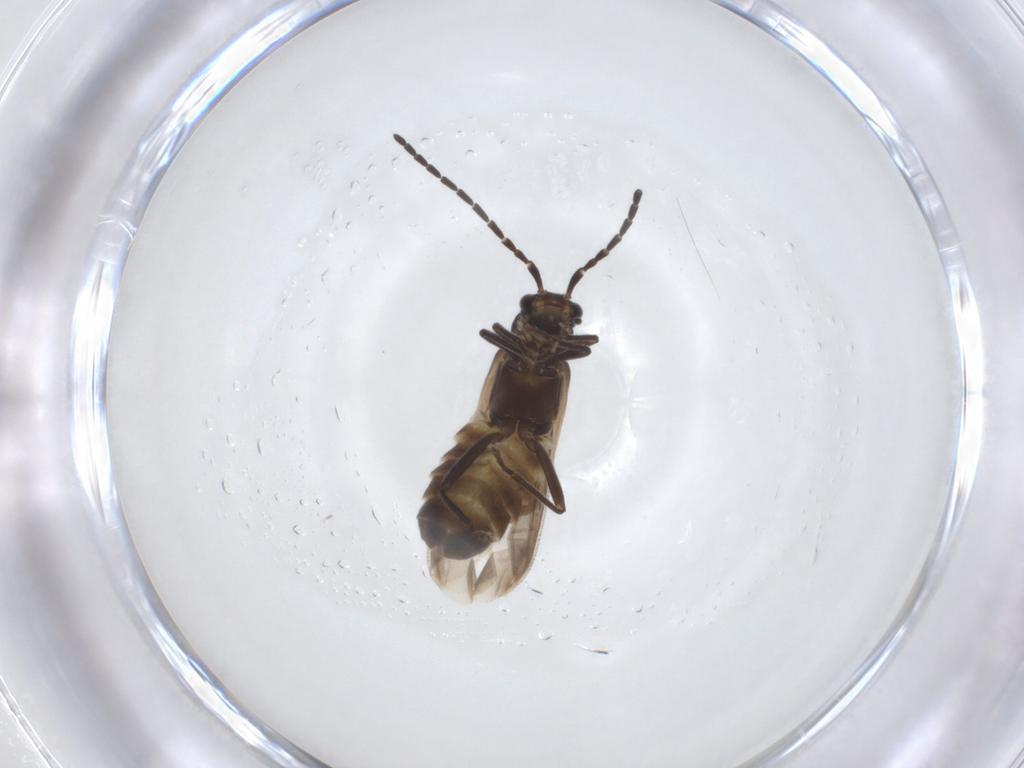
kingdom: Animalia
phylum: Arthropoda
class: Insecta
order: Coleoptera
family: Cantharidae
